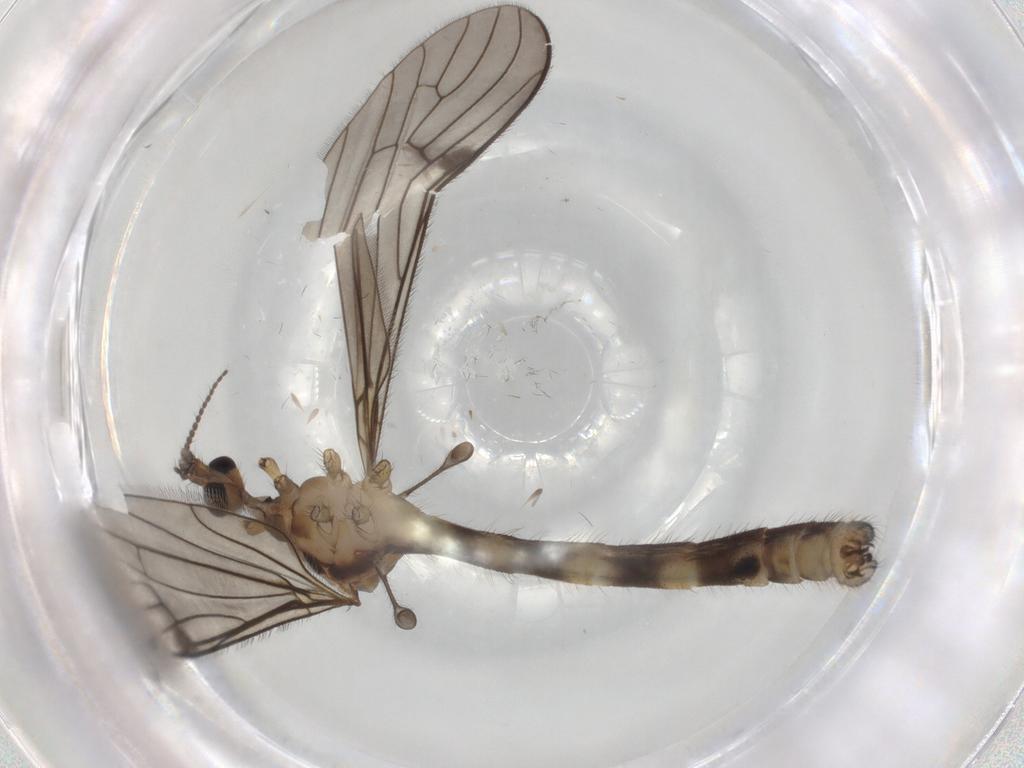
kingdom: Animalia
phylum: Arthropoda
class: Insecta
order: Diptera
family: Limoniidae
